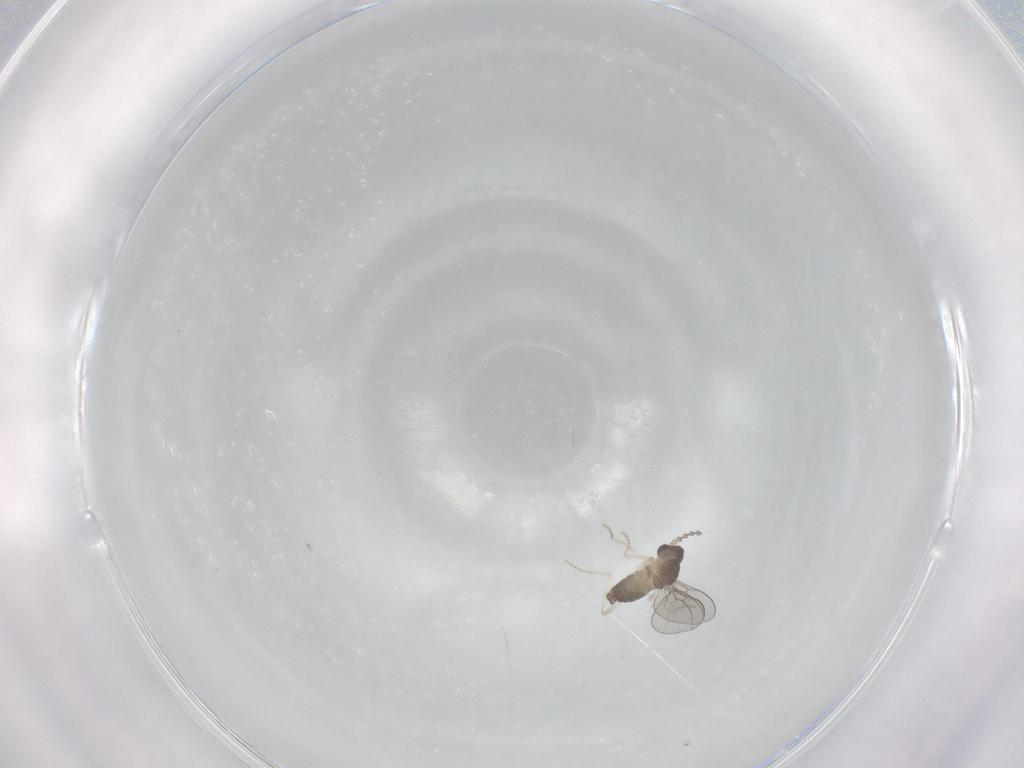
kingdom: Animalia
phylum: Arthropoda
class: Insecta
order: Diptera
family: Cecidomyiidae
